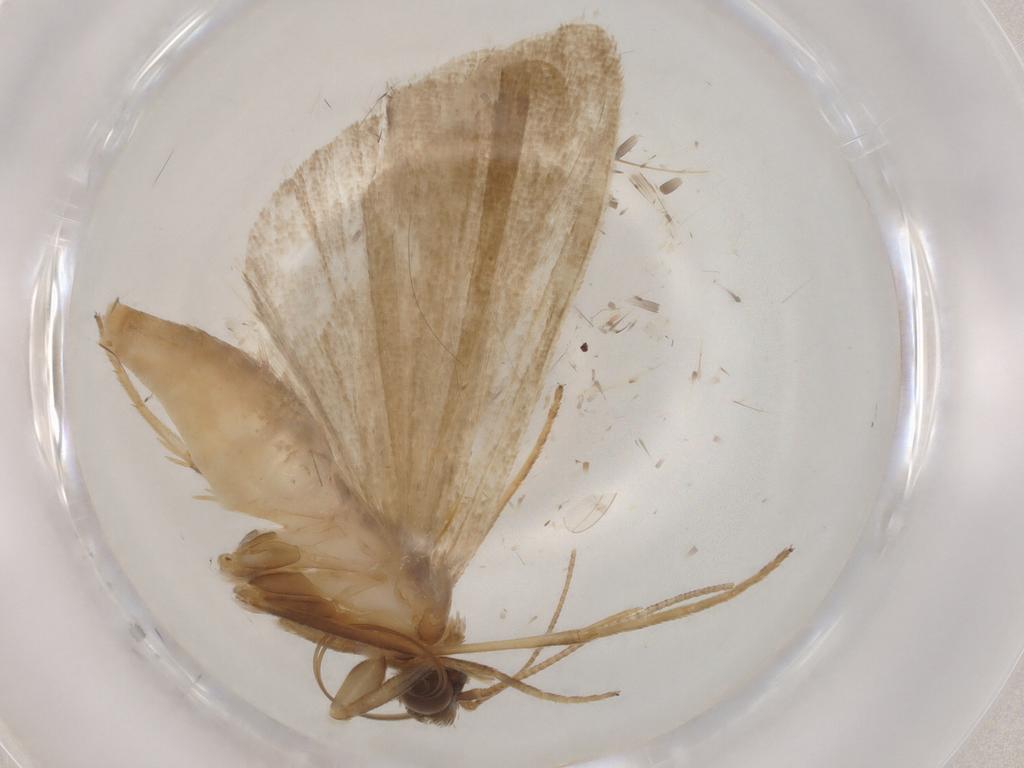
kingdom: Animalia
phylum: Arthropoda
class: Insecta
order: Lepidoptera
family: Noctuidae
